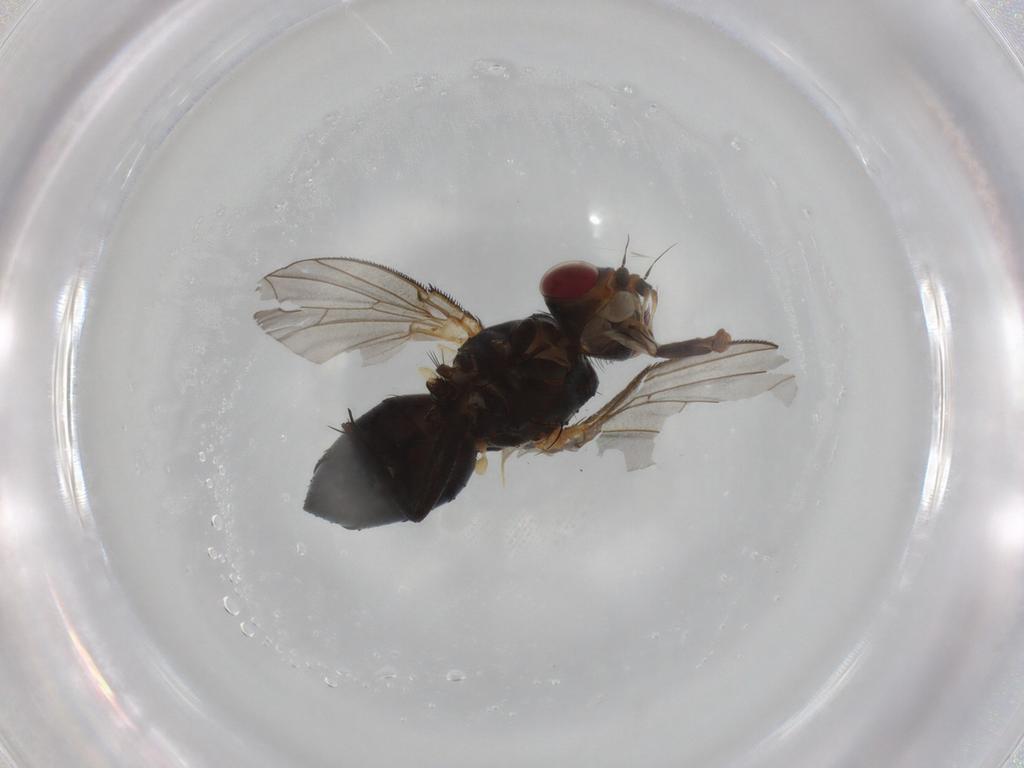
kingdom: Animalia
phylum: Arthropoda
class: Insecta
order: Diptera
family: Calliphoridae
